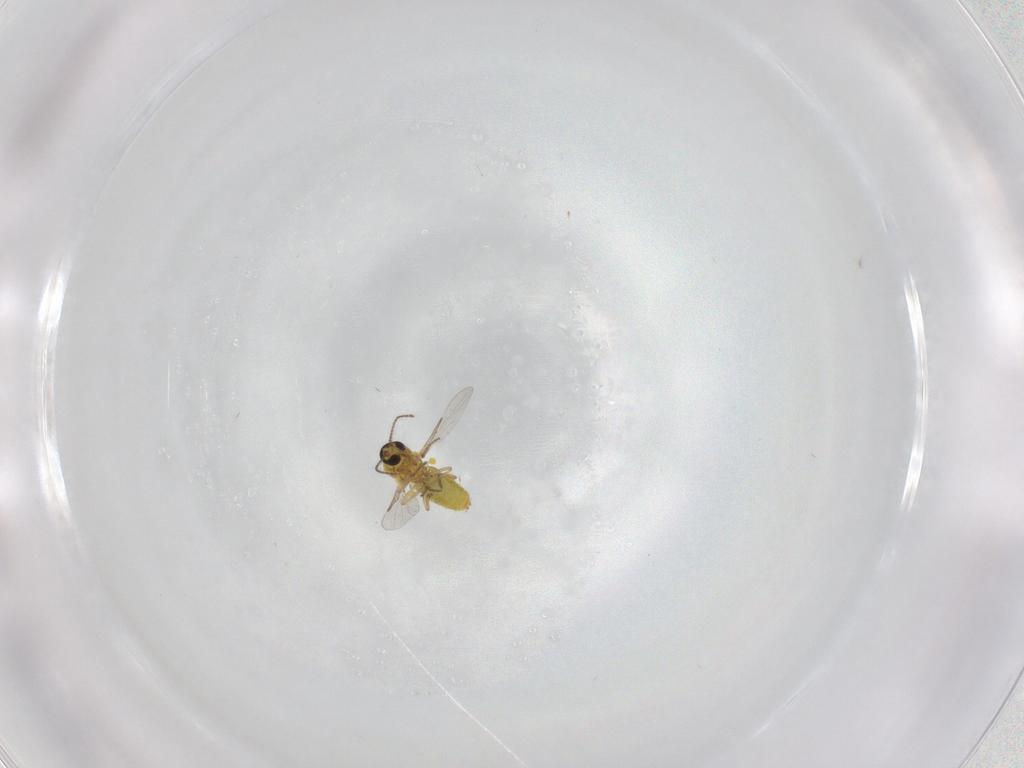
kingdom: Animalia
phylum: Arthropoda
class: Insecta
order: Diptera
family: Ceratopogonidae
